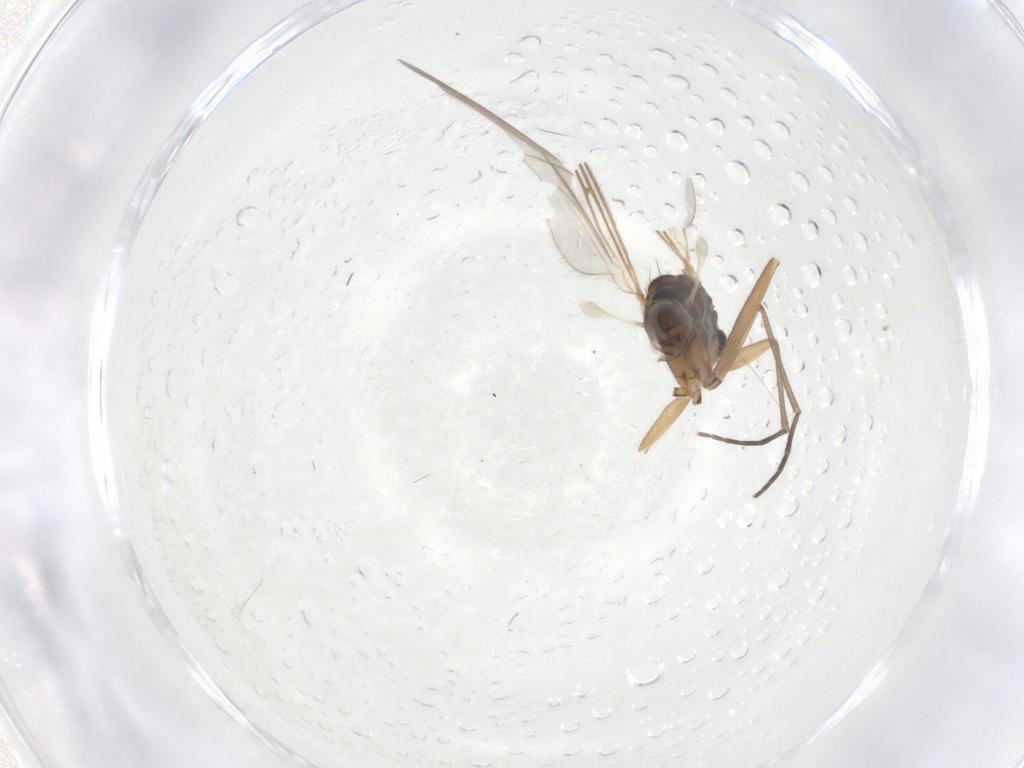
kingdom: Animalia
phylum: Arthropoda
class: Insecta
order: Diptera
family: Sciaridae
